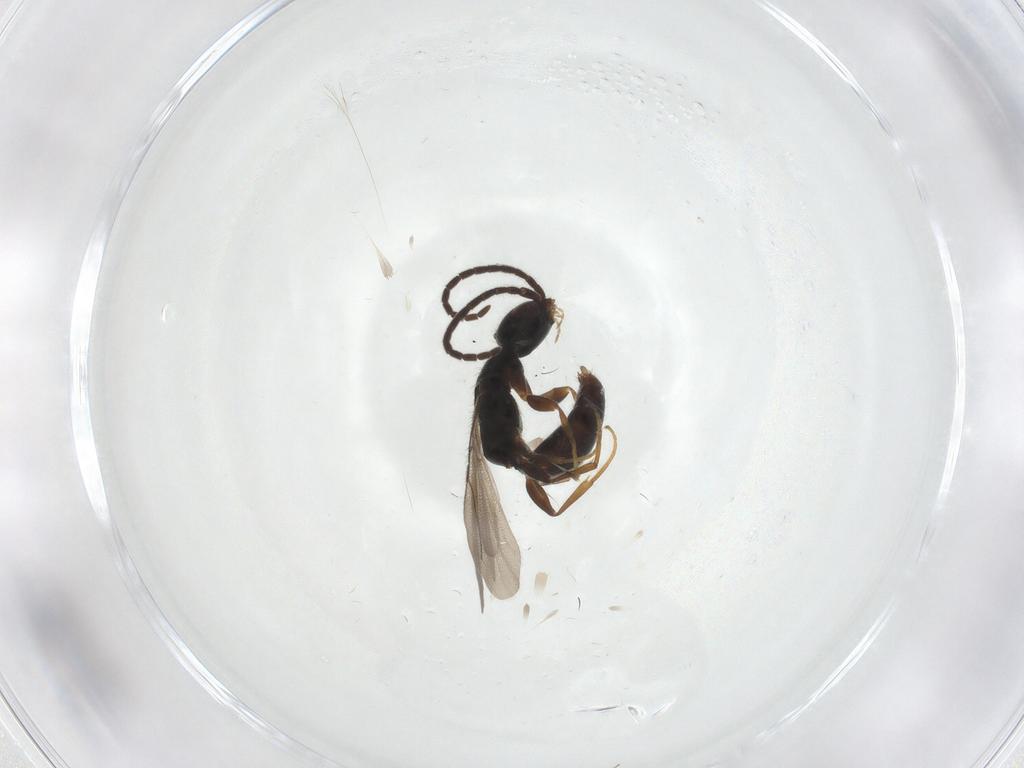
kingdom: Animalia
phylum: Arthropoda
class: Insecta
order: Hymenoptera
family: Bethylidae
